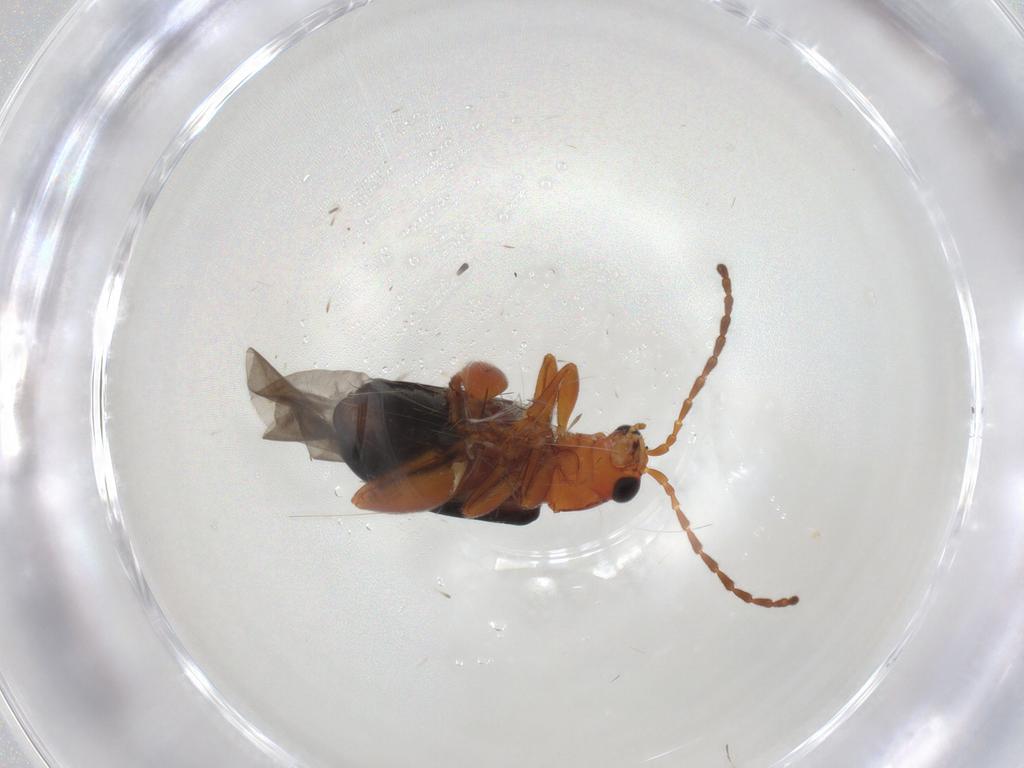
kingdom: Animalia
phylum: Arthropoda
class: Insecta
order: Coleoptera
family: Chrysomelidae
